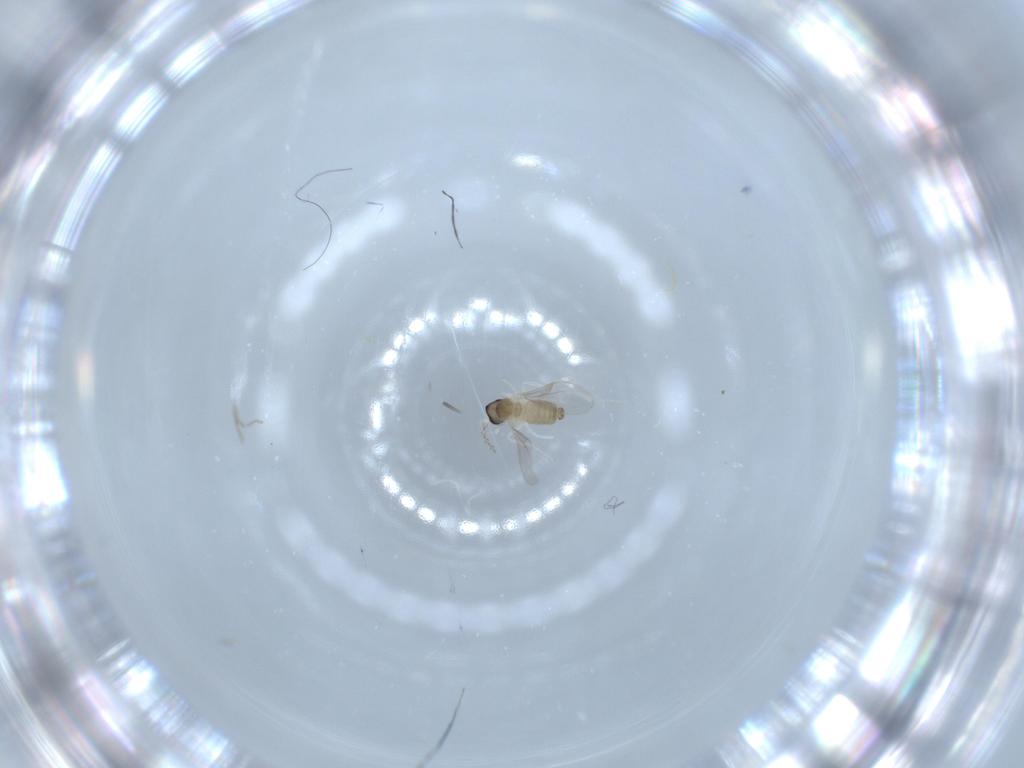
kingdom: Animalia
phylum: Arthropoda
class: Insecta
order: Diptera
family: Cecidomyiidae
